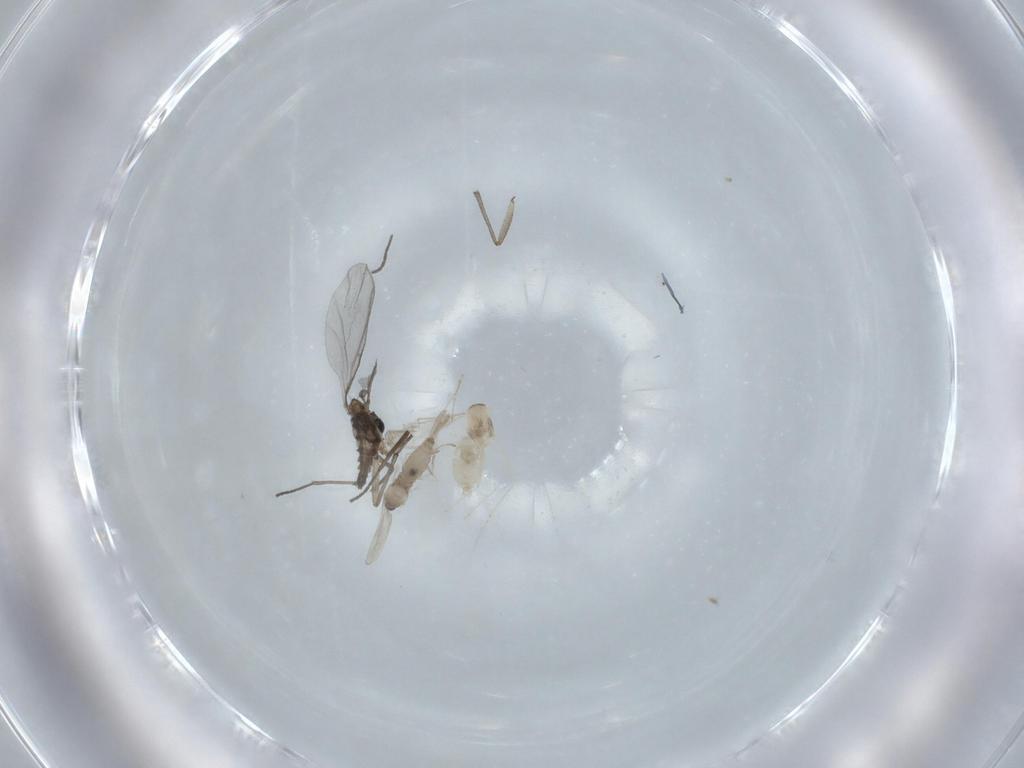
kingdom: Animalia
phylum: Arthropoda
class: Insecta
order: Diptera
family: Sciaridae
